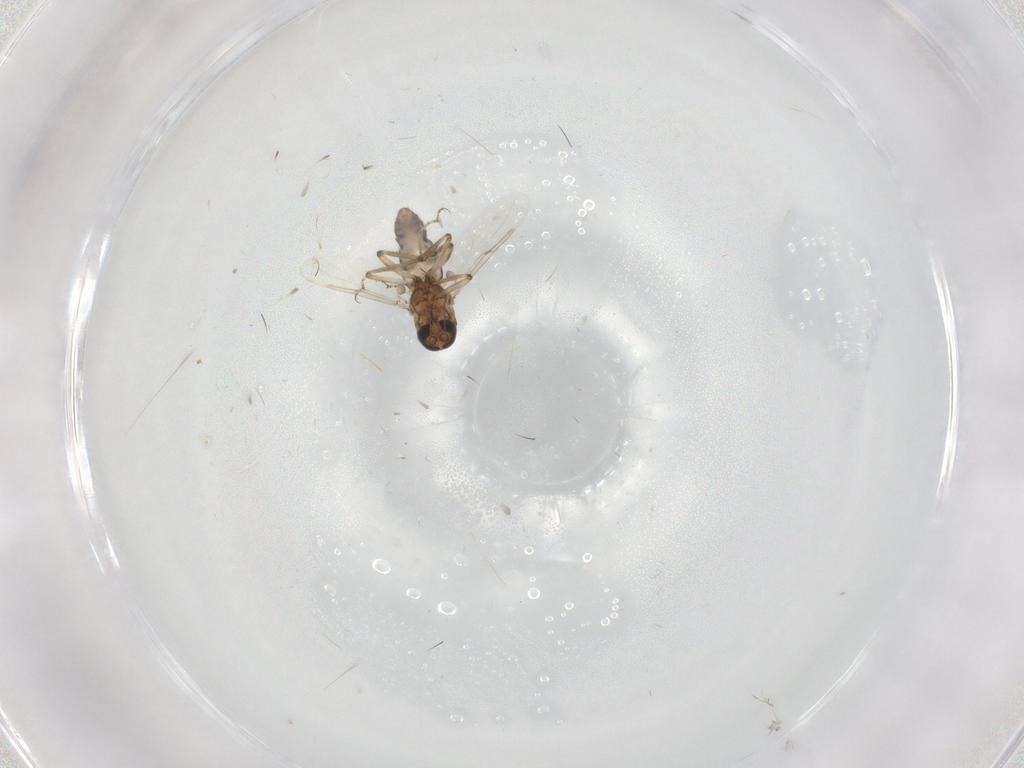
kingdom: Animalia
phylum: Arthropoda
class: Insecta
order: Diptera
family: Ceratopogonidae
